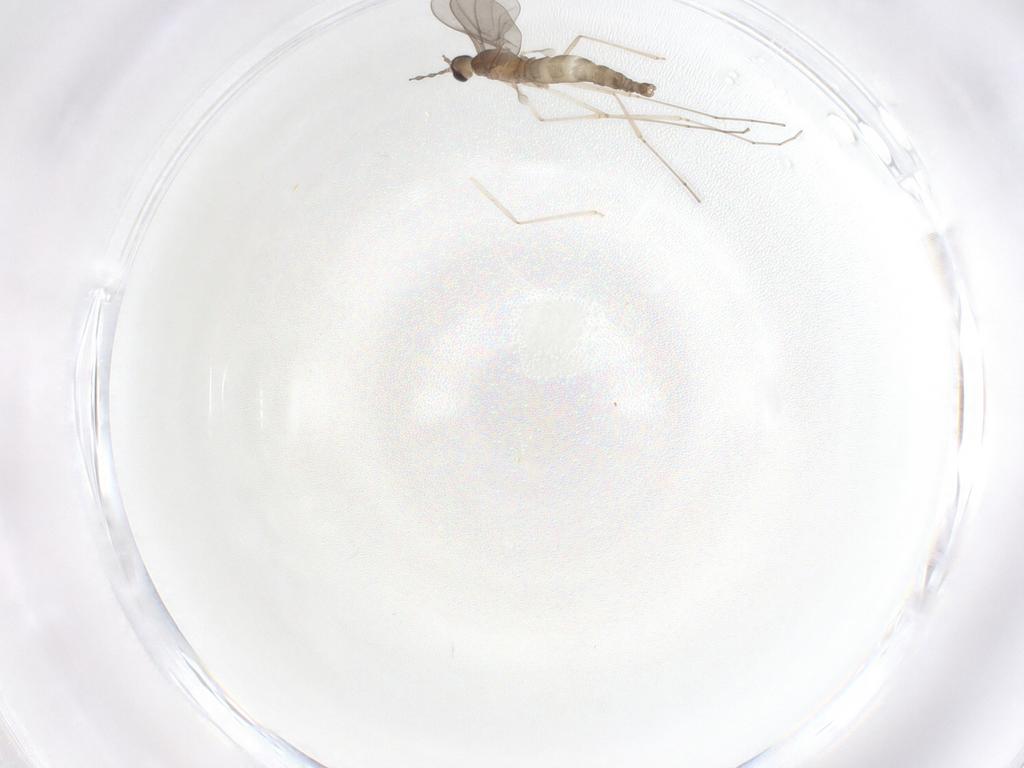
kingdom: Animalia
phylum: Arthropoda
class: Insecta
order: Diptera
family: Cecidomyiidae
